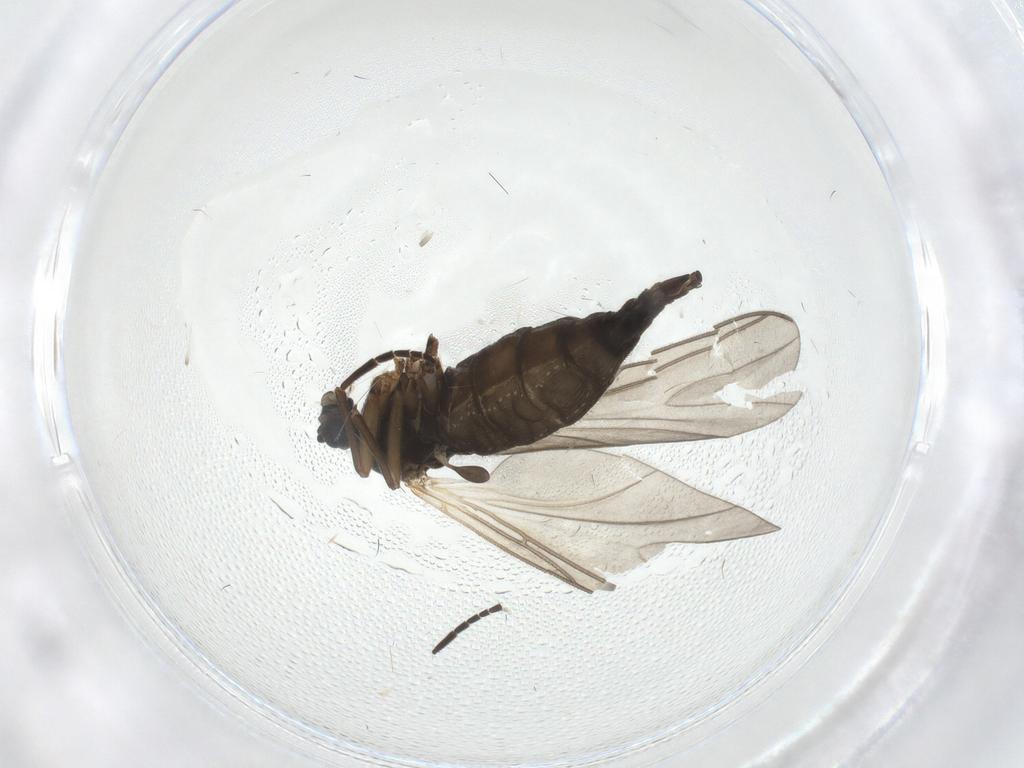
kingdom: Animalia
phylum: Arthropoda
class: Insecta
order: Diptera
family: Sciaridae
